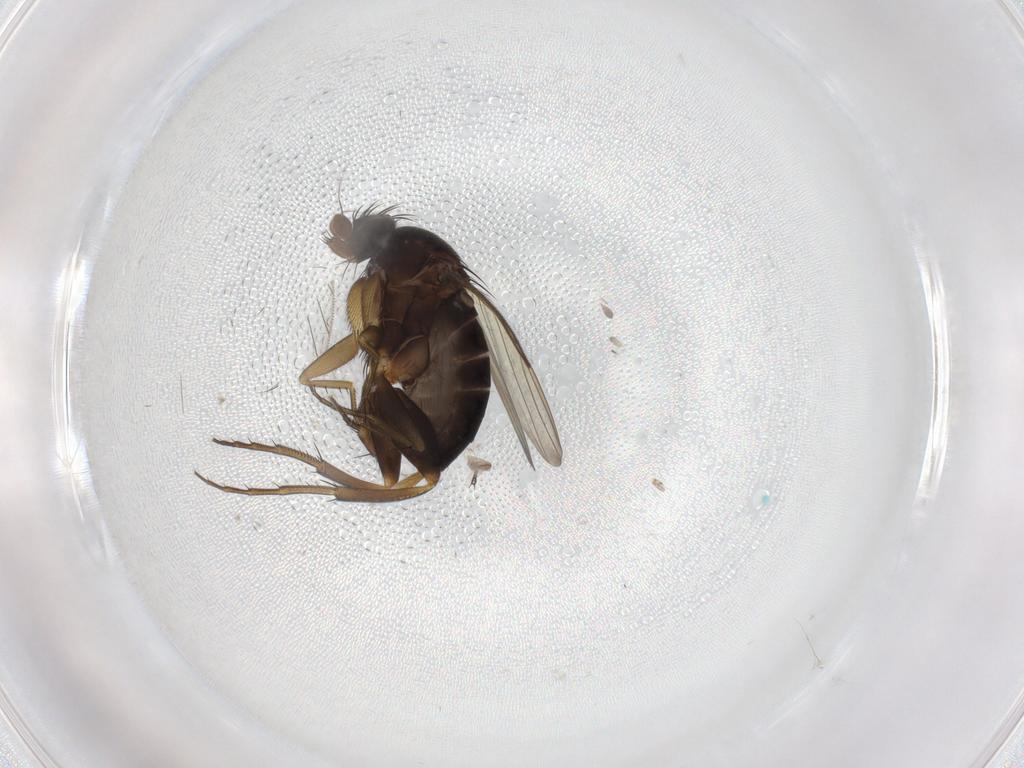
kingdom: Animalia
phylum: Arthropoda
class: Insecta
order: Diptera
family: Phoridae
